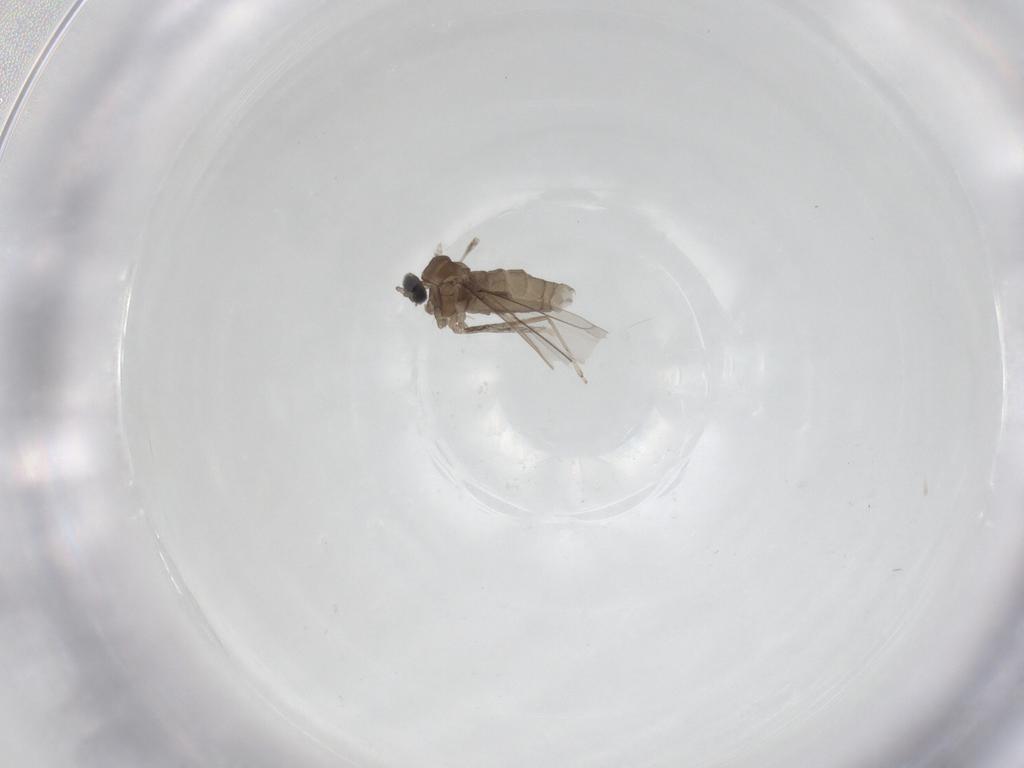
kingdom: Animalia
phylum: Arthropoda
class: Insecta
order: Diptera
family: Limoniidae
